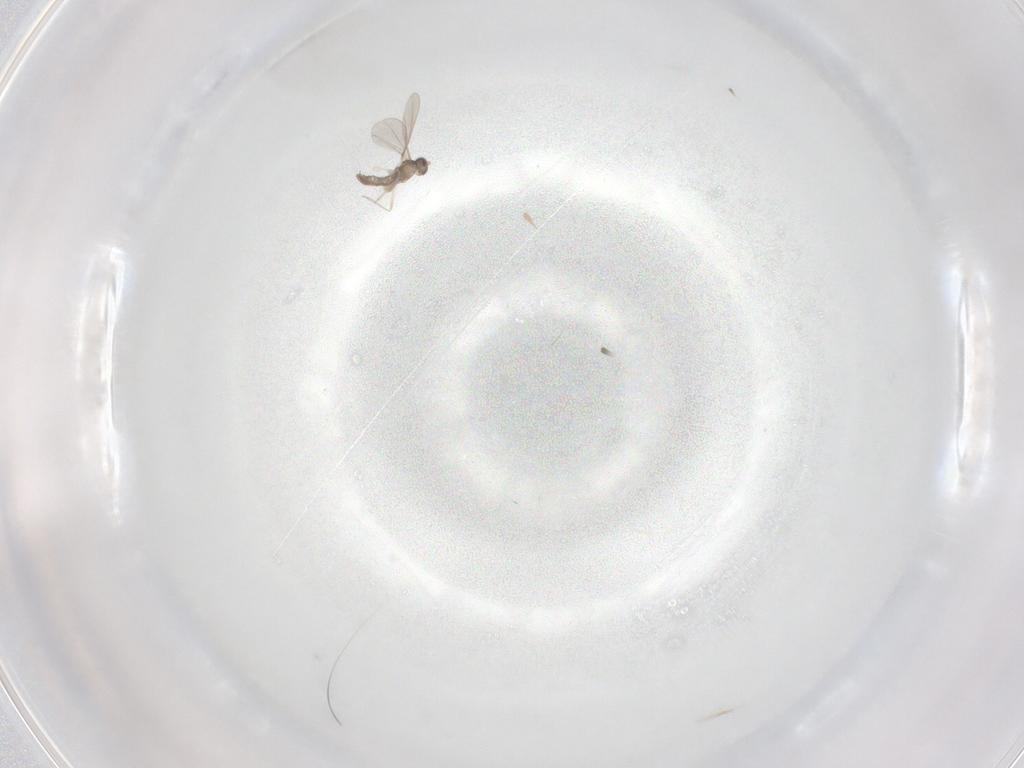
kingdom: Animalia
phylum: Arthropoda
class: Insecta
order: Diptera
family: Cecidomyiidae
